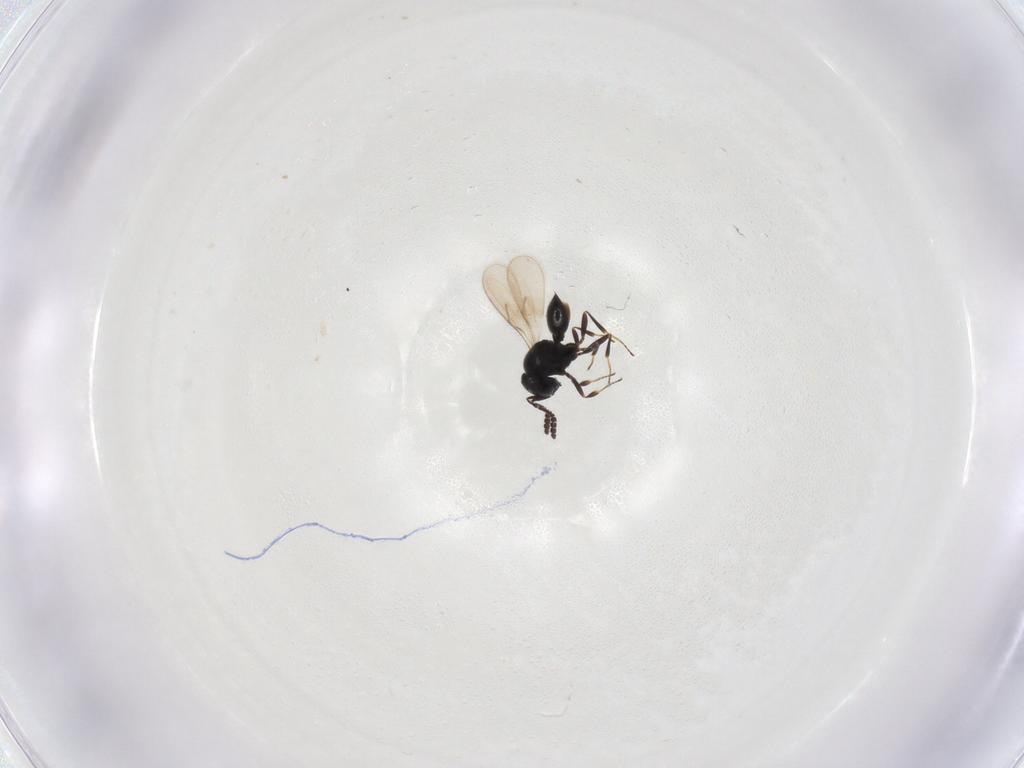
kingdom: Animalia
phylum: Arthropoda
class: Insecta
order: Hymenoptera
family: Scelionidae
